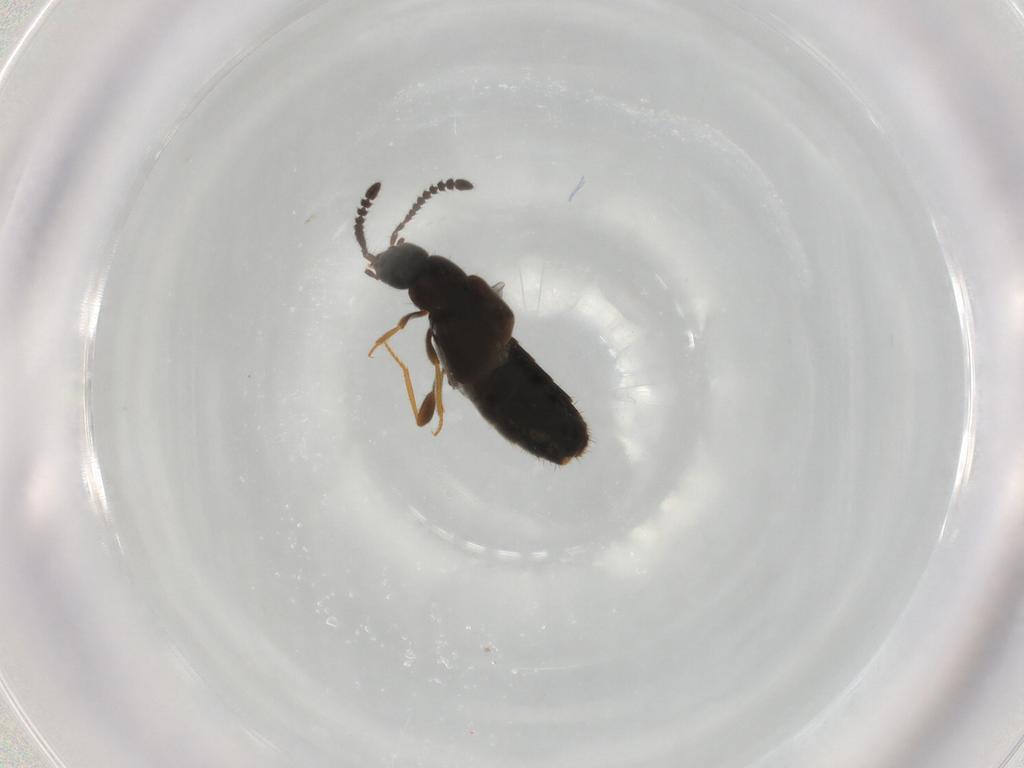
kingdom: Animalia
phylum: Arthropoda
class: Insecta
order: Coleoptera
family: Staphylinidae
